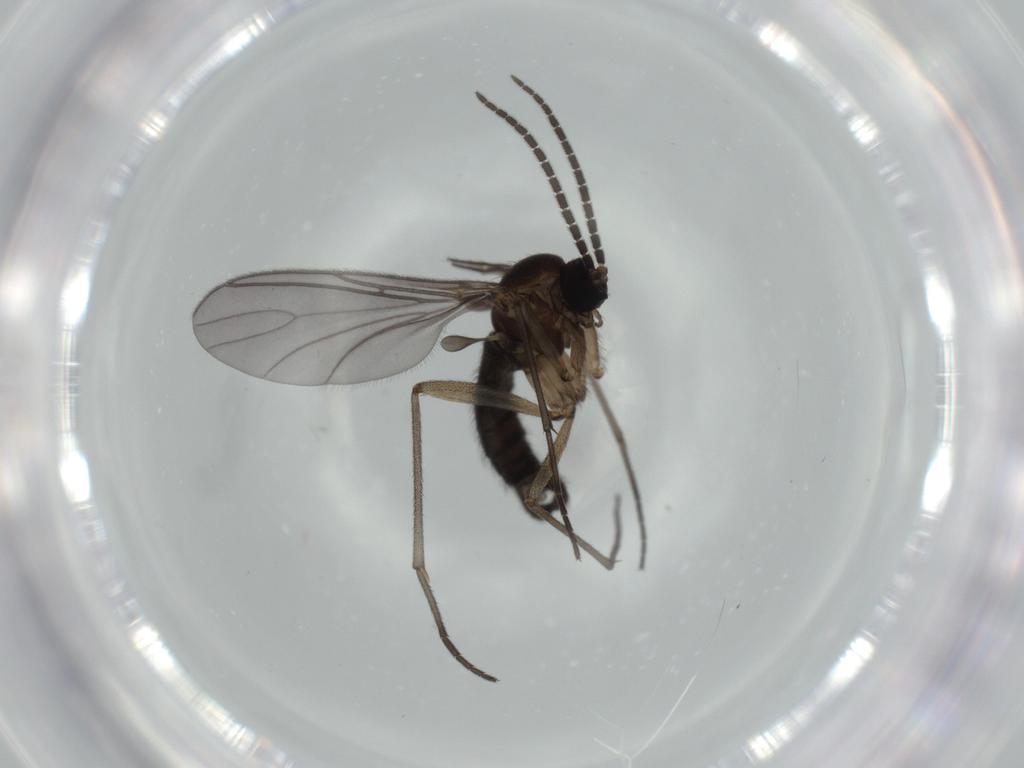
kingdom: Animalia
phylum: Arthropoda
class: Insecta
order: Diptera
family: Sciaridae
